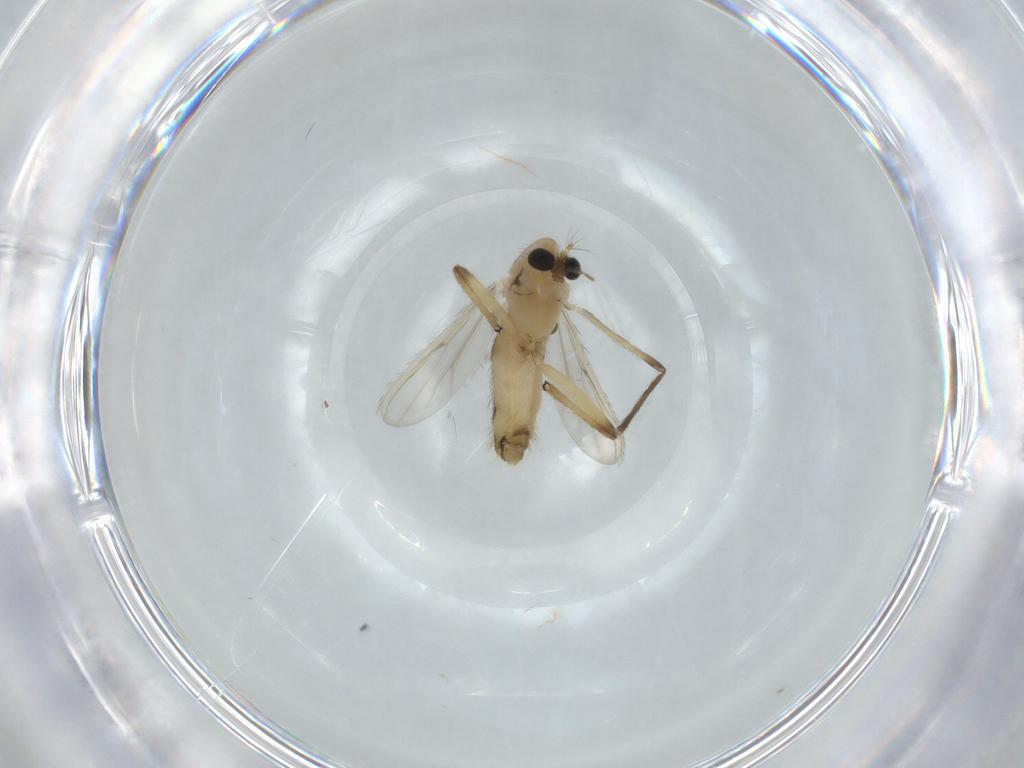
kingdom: Animalia
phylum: Arthropoda
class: Insecta
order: Diptera
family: Chironomidae
